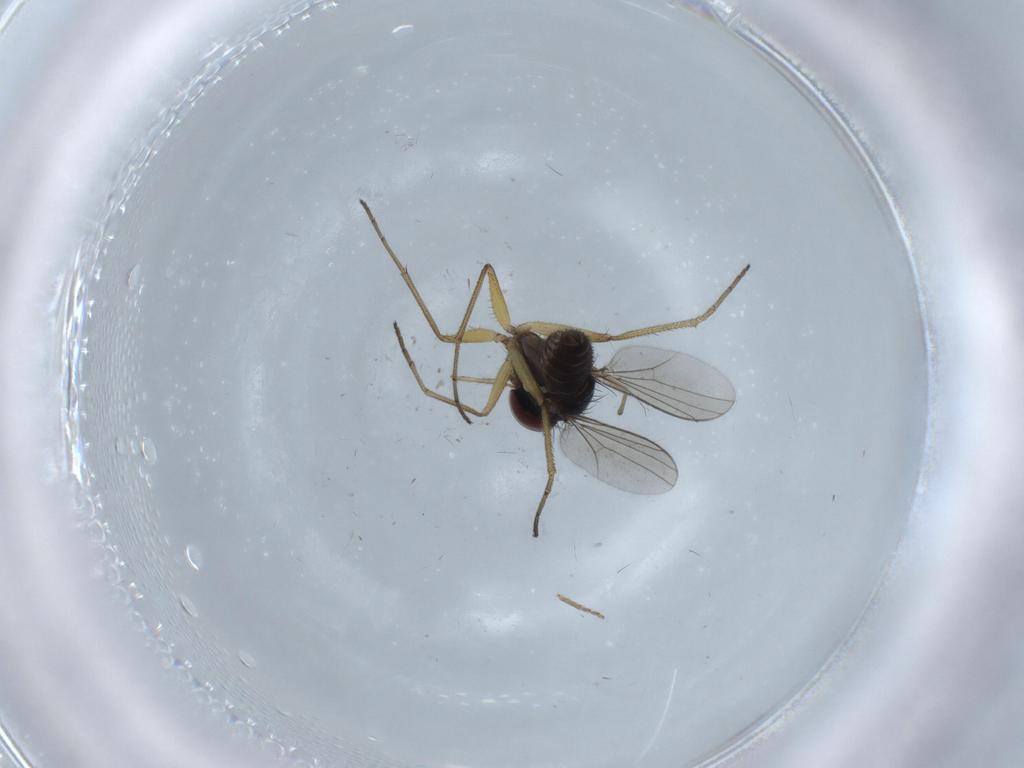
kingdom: Animalia
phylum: Arthropoda
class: Insecta
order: Diptera
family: Dolichopodidae
